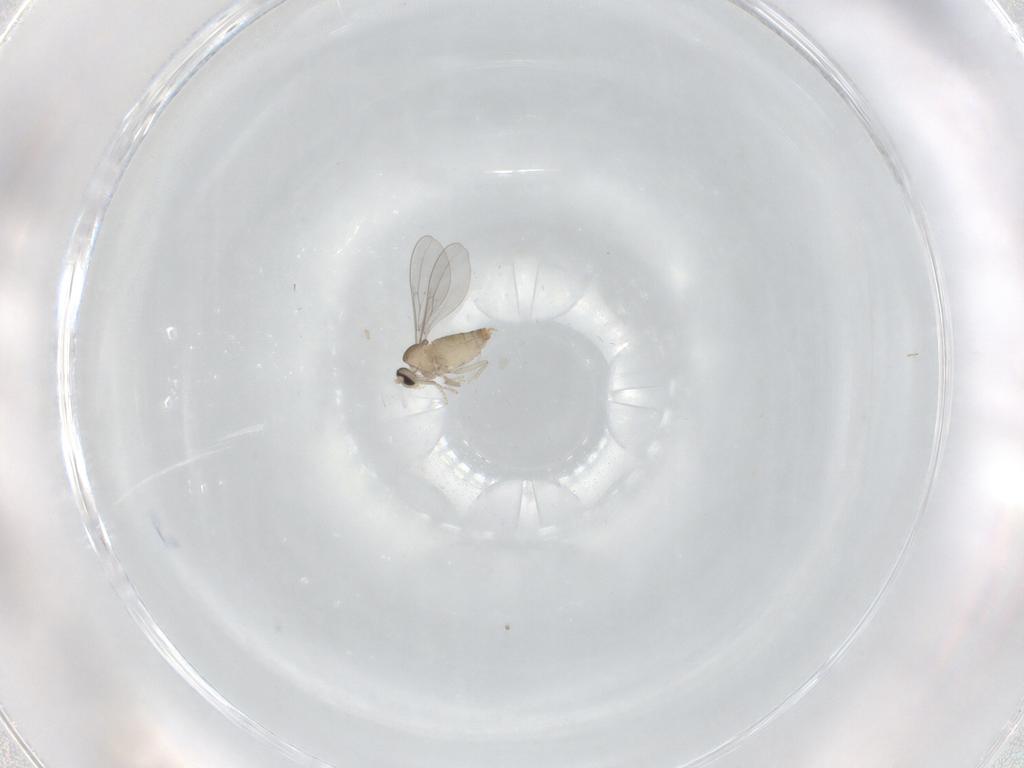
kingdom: Animalia
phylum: Arthropoda
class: Insecta
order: Diptera
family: Cecidomyiidae
